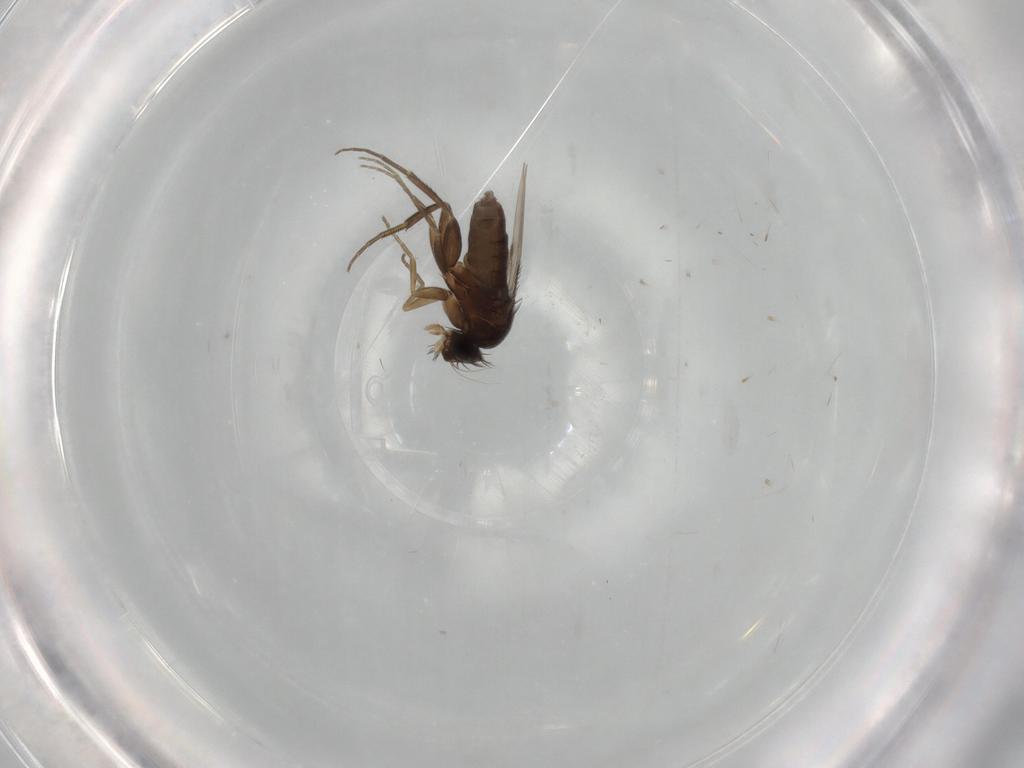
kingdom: Animalia
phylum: Arthropoda
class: Insecta
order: Diptera
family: Phoridae
